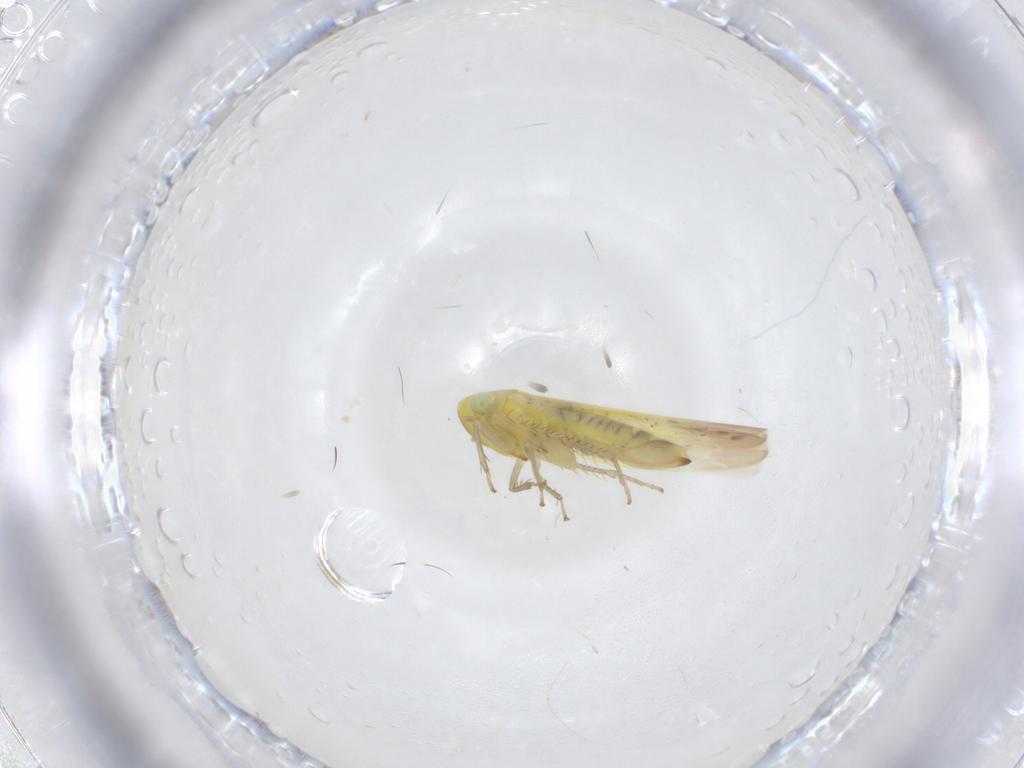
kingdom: Animalia
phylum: Arthropoda
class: Insecta
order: Hemiptera
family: Cicadellidae
